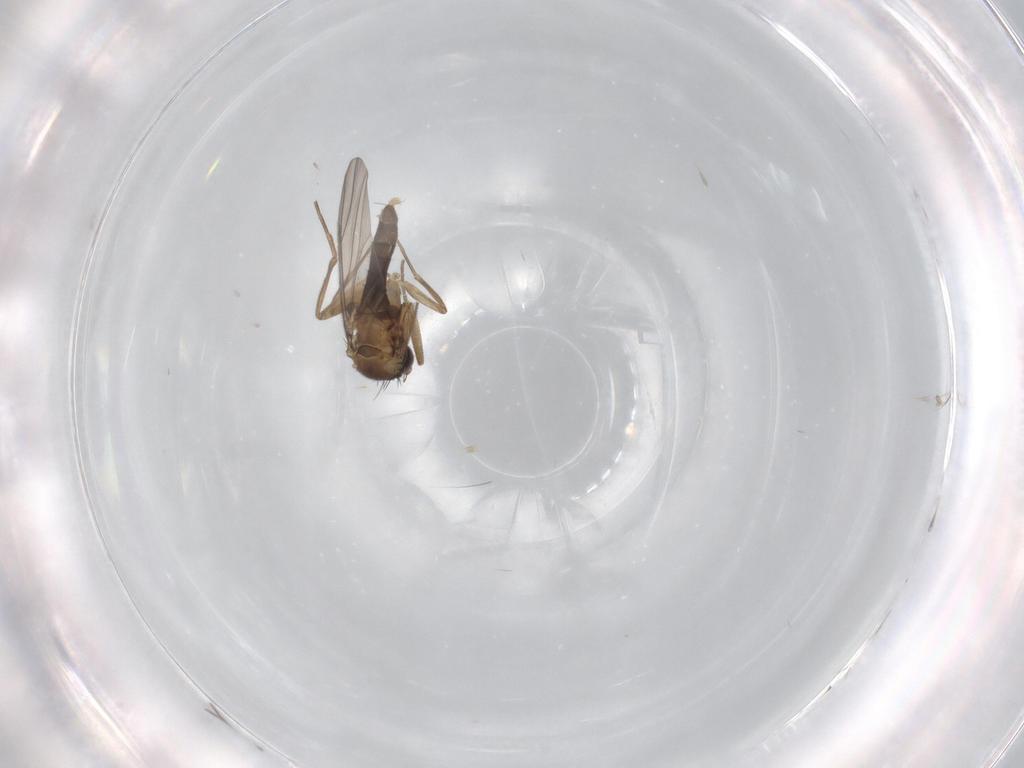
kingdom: Animalia
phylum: Arthropoda
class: Insecta
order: Diptera
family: Phoridae
